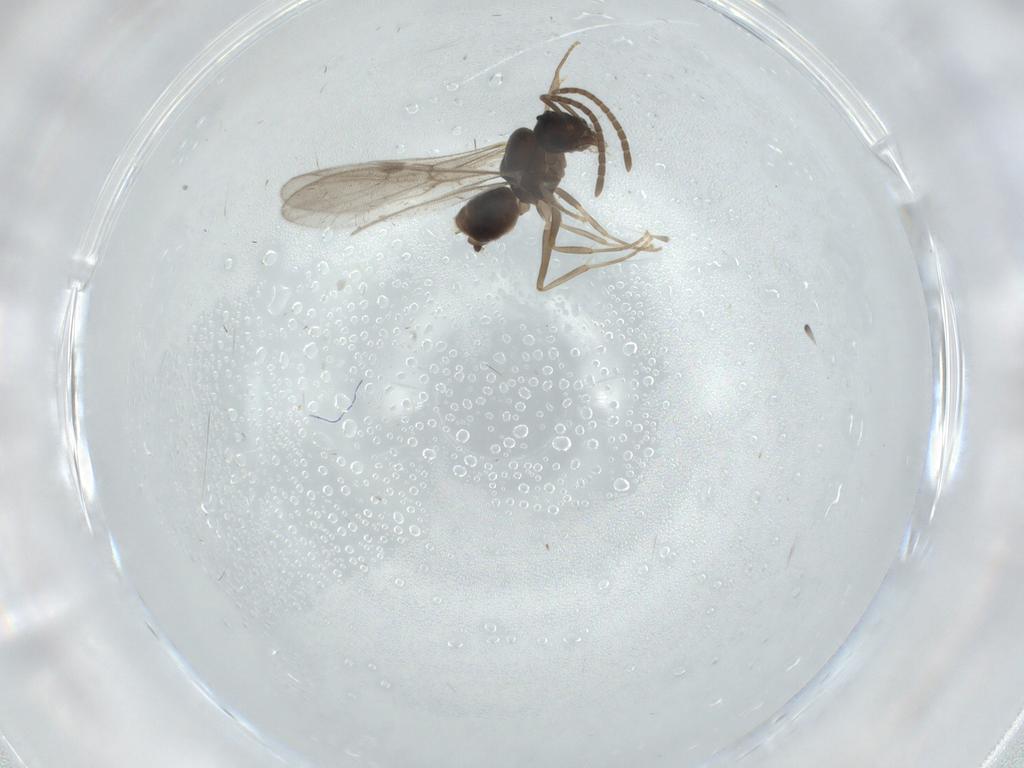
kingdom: Animalia
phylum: Arthropoda
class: Insecta
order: Hymenoptera
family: Formicidae
